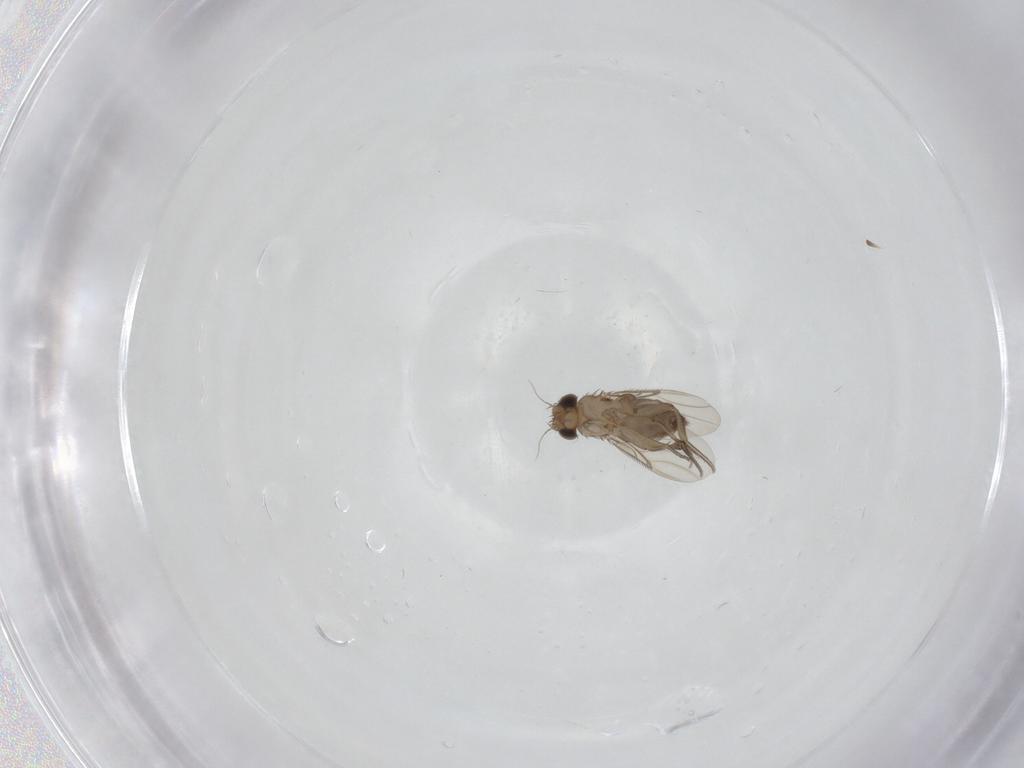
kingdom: Animalia
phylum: Arthropoda
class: Insecta
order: Diptera
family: Phoridae
